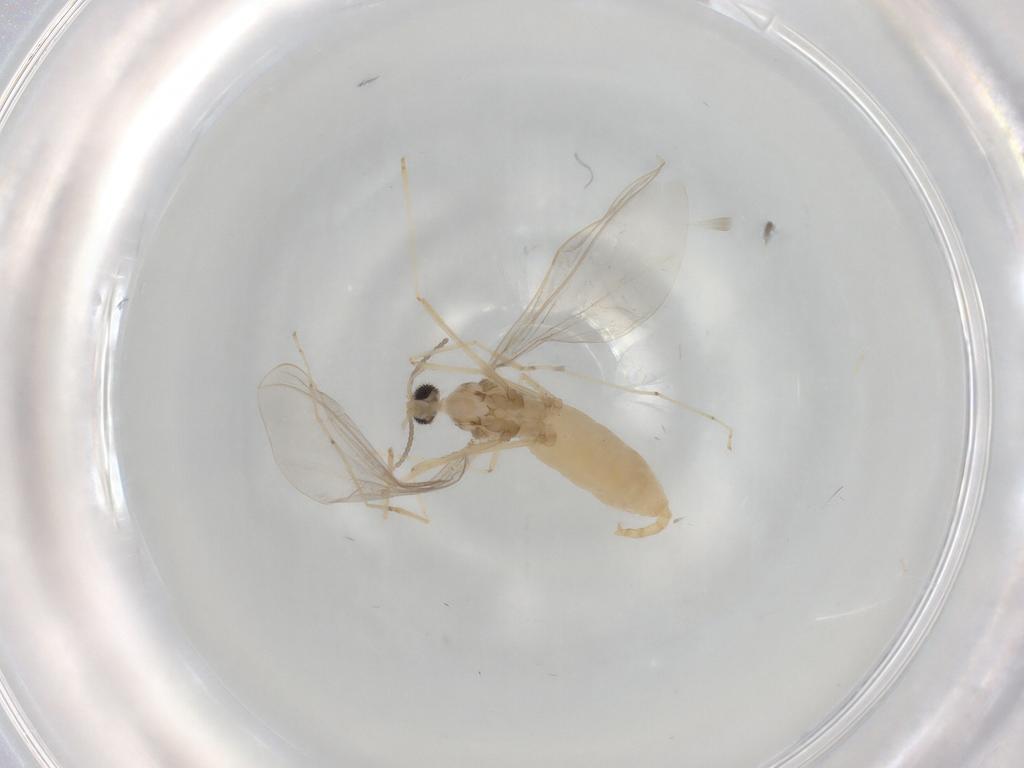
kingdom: Animalia
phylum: Arthropoda
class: Insecta
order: Diptera
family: Cecidomyiidae
